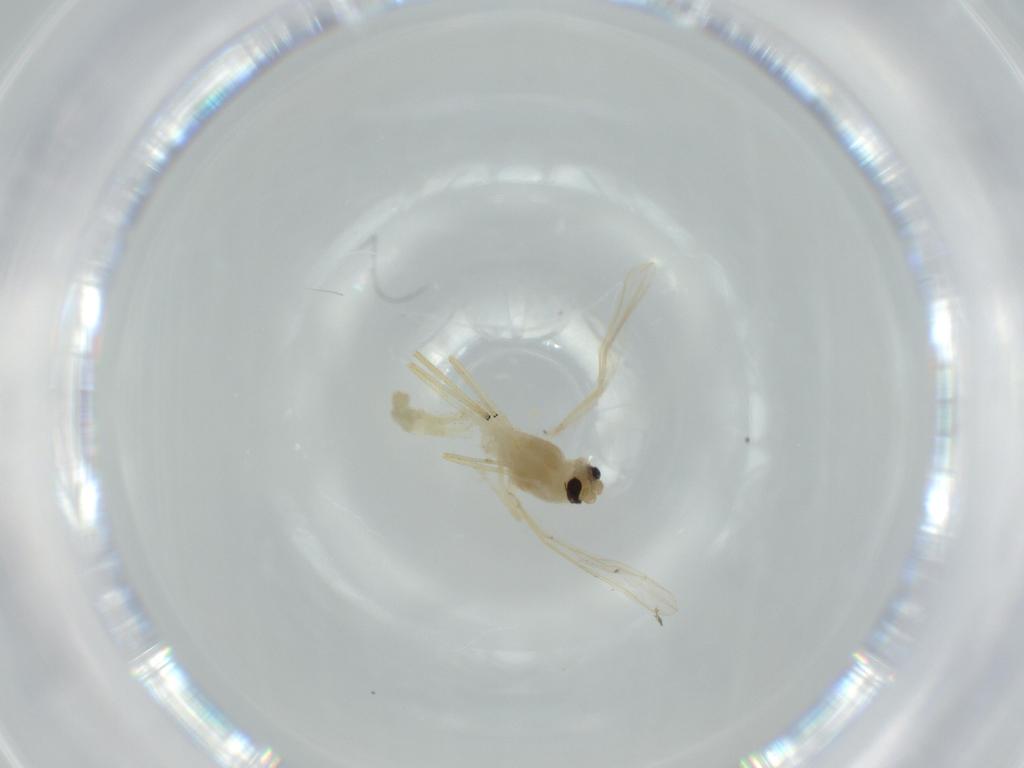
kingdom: Animalia
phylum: Arthropoda
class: Insecta
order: Diptera
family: Chironomidae
